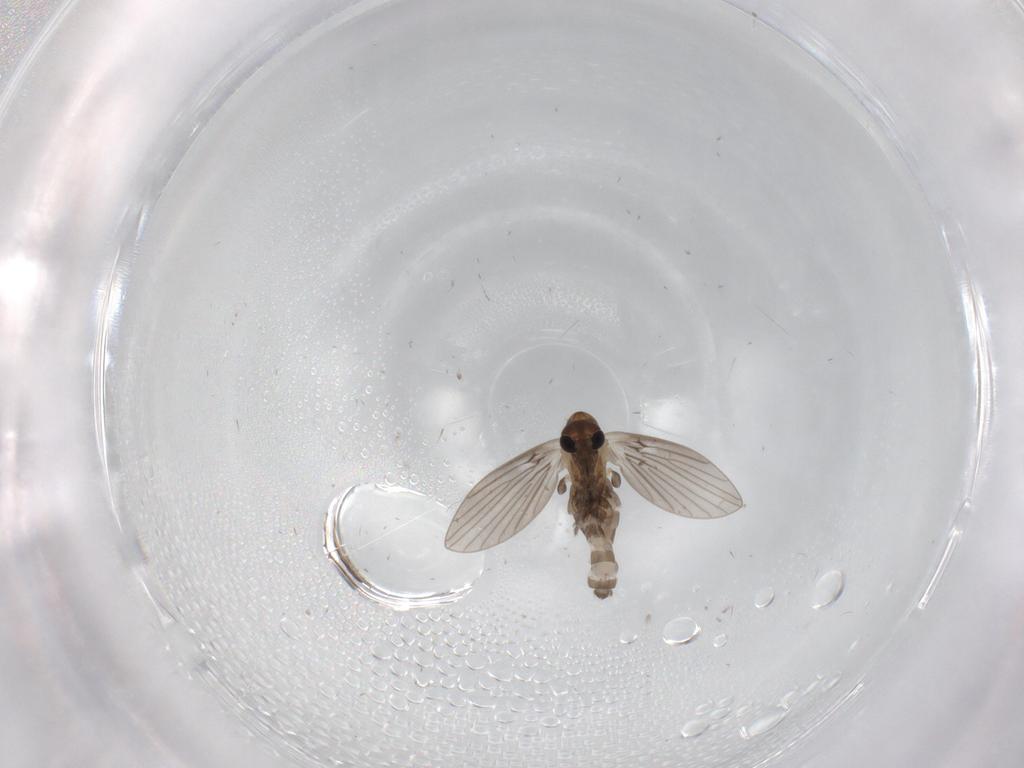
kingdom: Animalia
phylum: Arthropoda
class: Insecta
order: Diptera
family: Psychodidae
